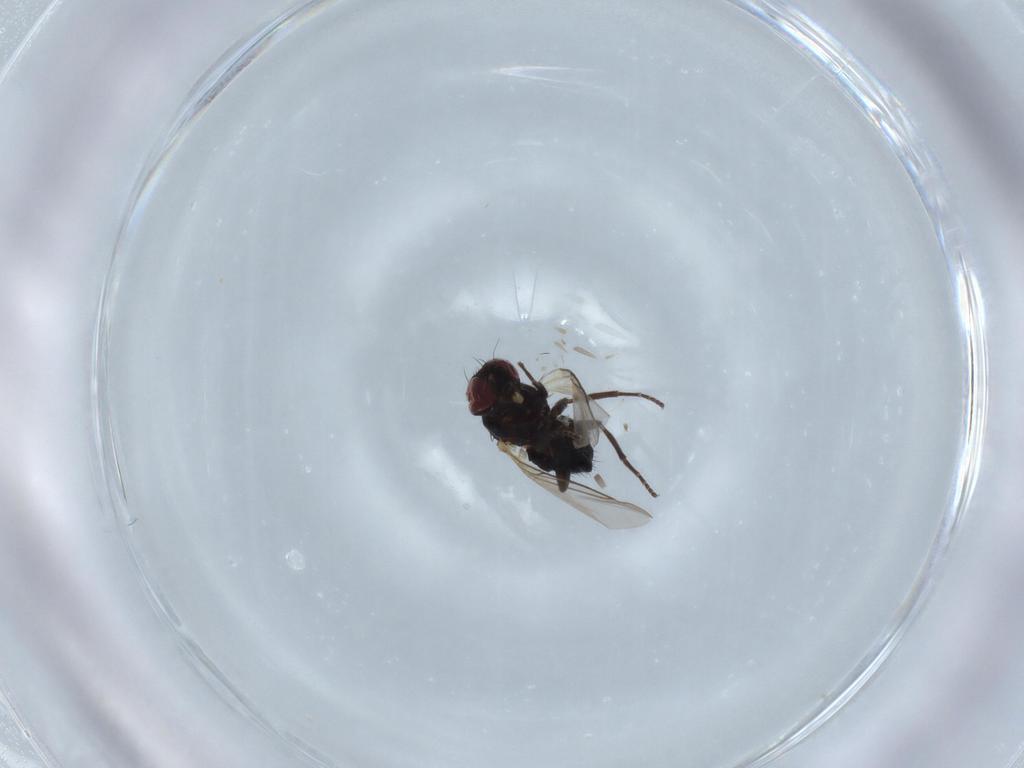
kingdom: Animalia
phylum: Arthropoda
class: Insecta
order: Diptera
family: Agromyzidae
